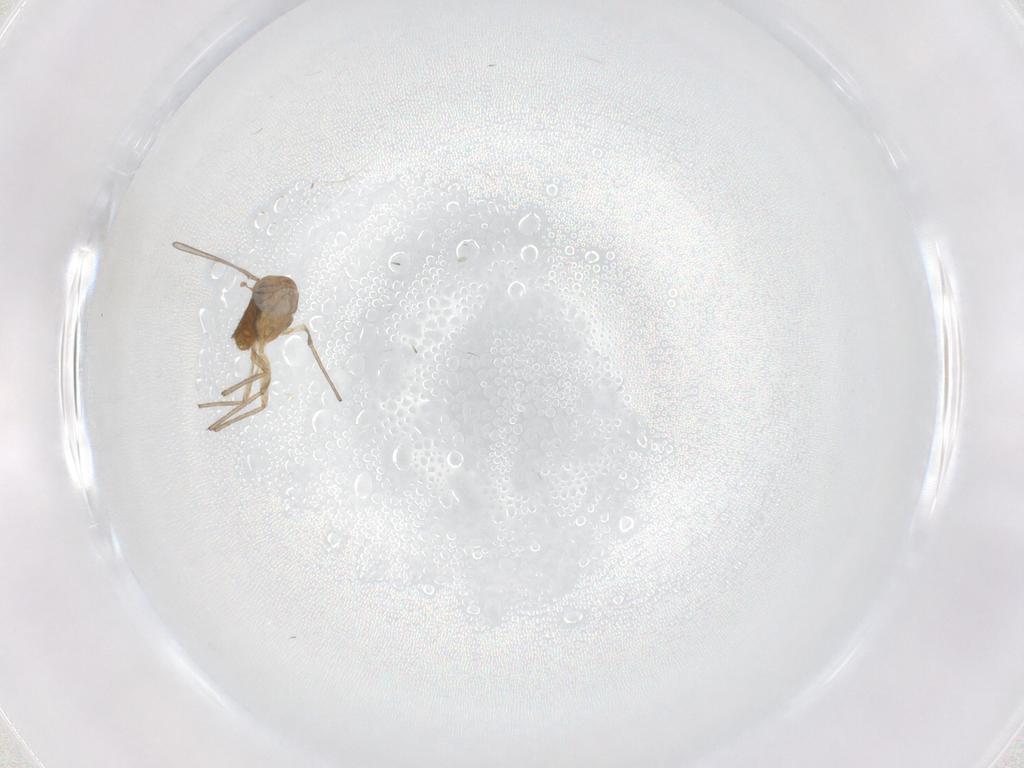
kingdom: Animalia
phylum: Arthropoda
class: Insecta
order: Diptera
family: Chironomidae
